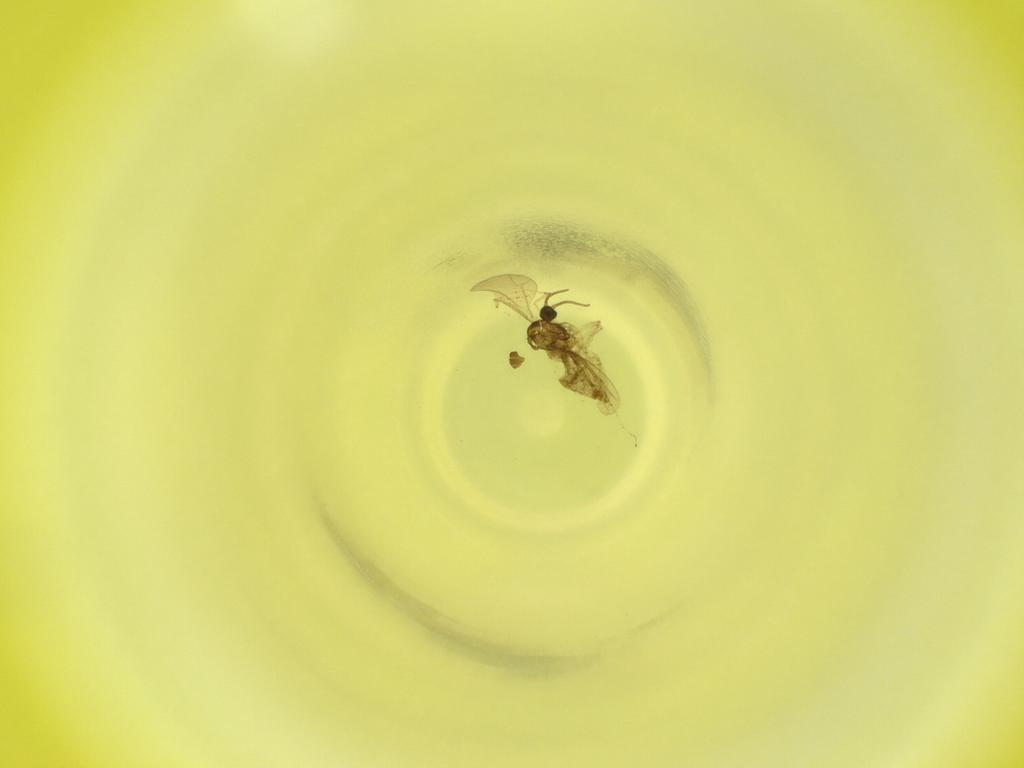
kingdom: Animalia
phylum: Arthropoda
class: Insecta
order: Diptera
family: Cecidomyiidae
